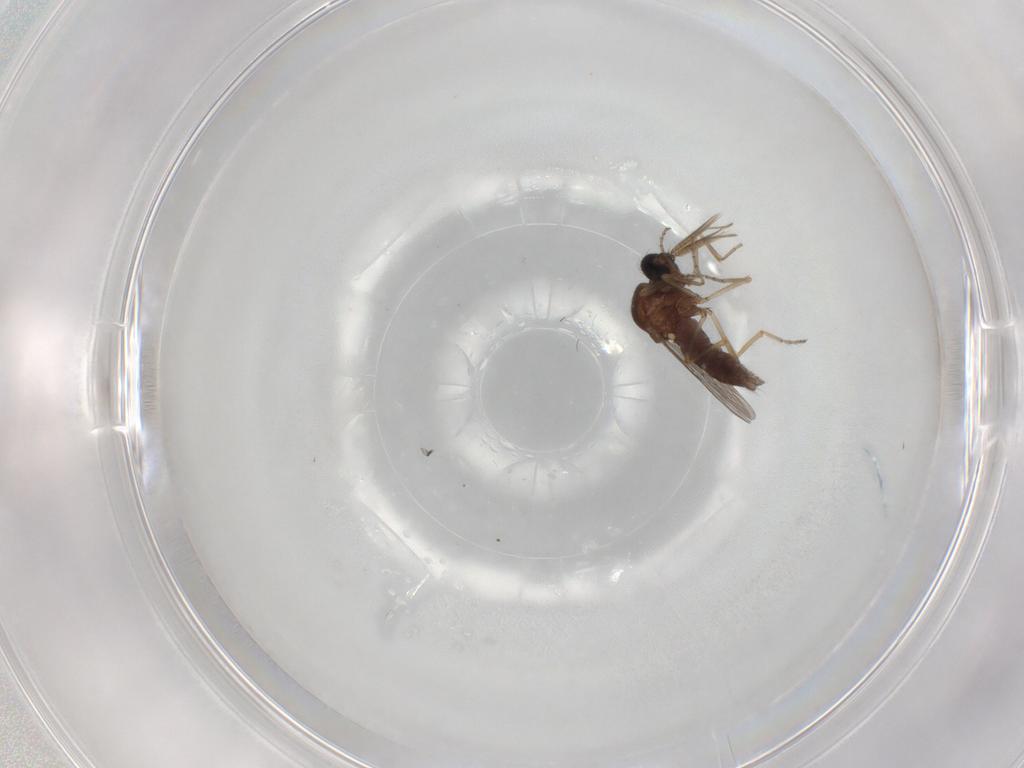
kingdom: Animalia
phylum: Arthropoda
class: Insecta
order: Diptera
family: Ceratopogonidae
